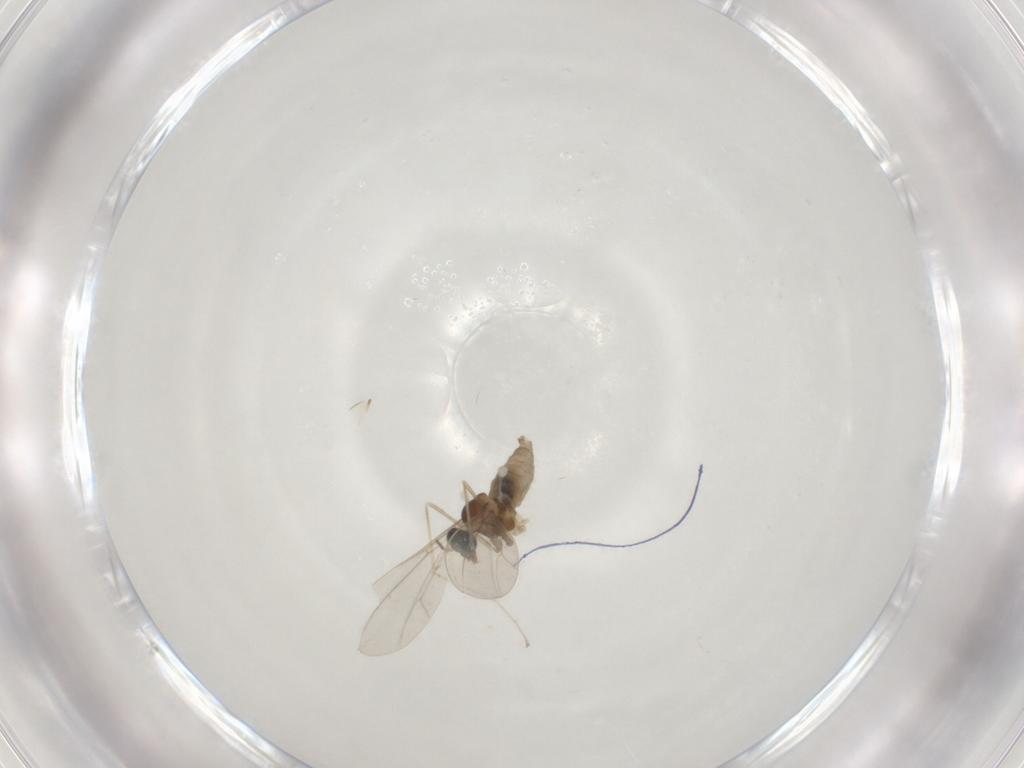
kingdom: Animalia
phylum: Arthropoda
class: Insecta
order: Diptera
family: Cecidomyiidae
